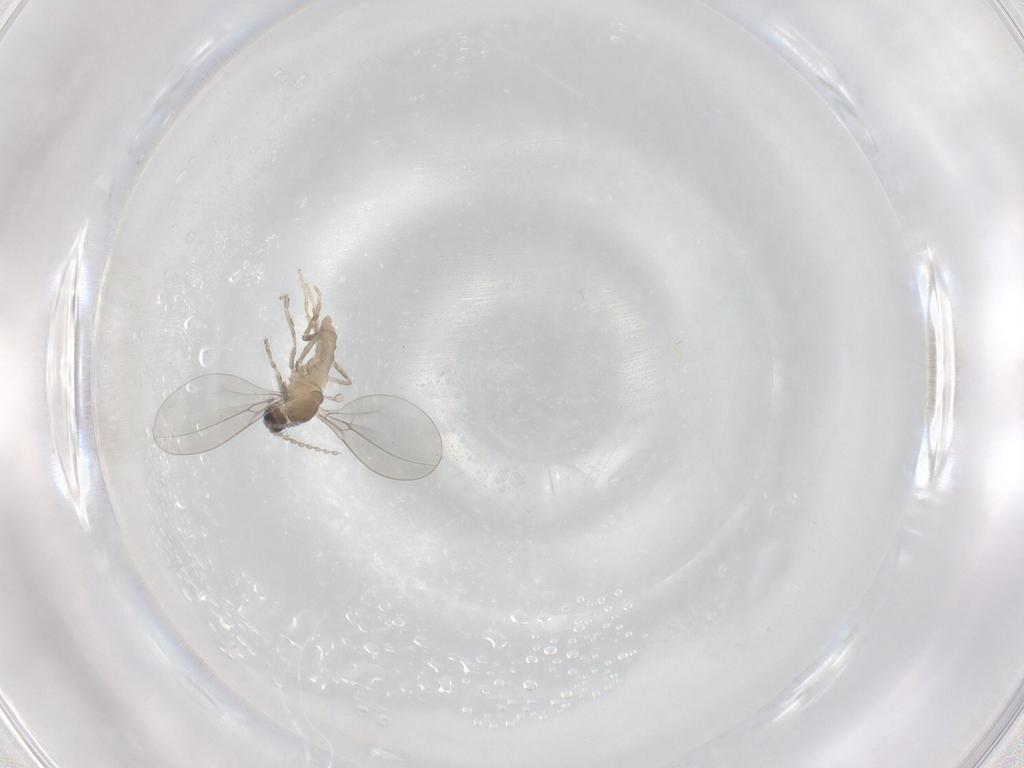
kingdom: Animalia
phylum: Arthropoda
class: Insecta
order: Diptera
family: Cecidomyiidae
